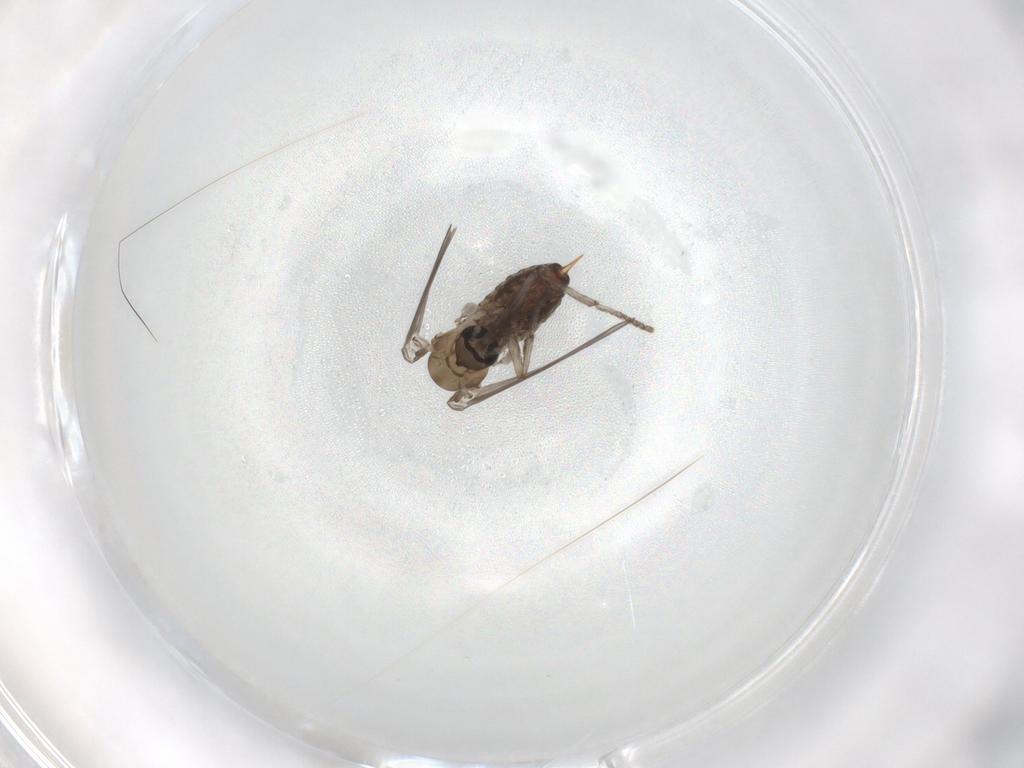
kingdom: Animalia
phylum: Arthropoda
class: Insecta
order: Diptera
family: Psychodidae
